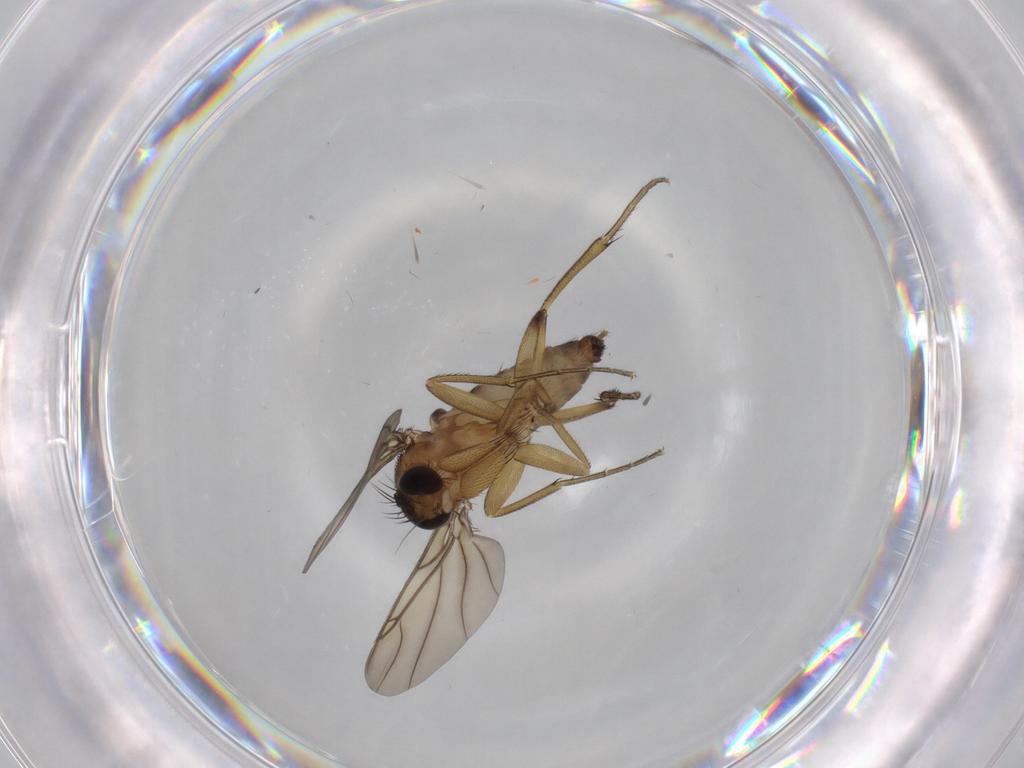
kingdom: Animalia
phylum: Arthropoda
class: Insecta
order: Diptera
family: Phoridae
